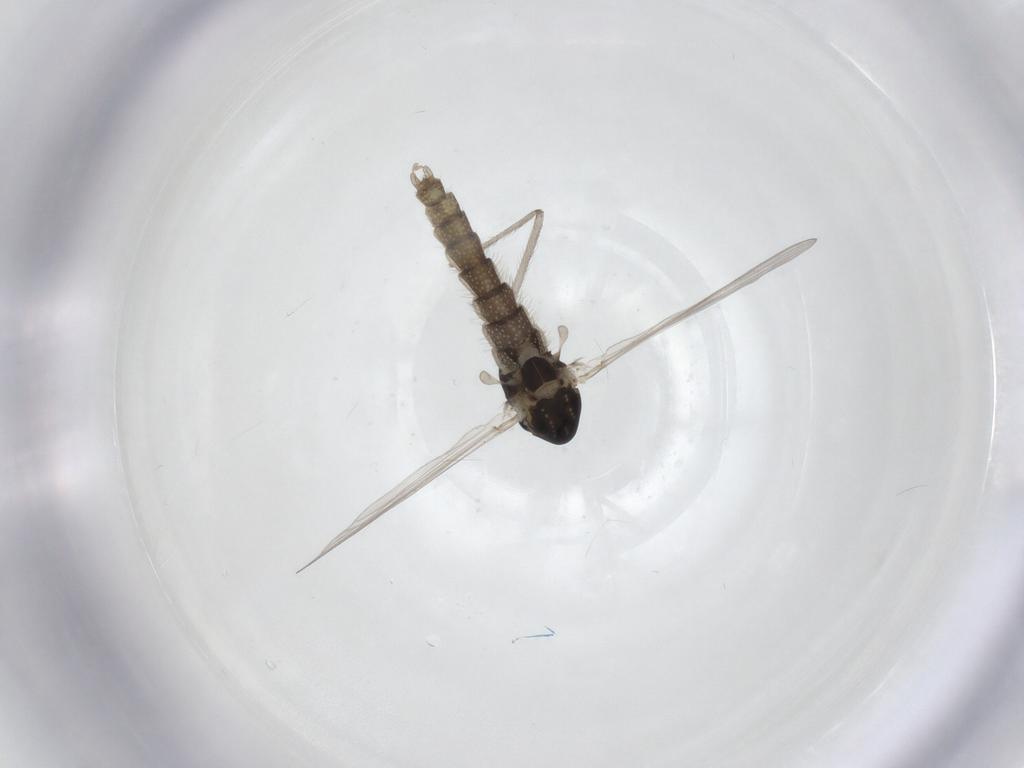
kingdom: Animalia
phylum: Arthropoda
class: Insecta
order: Diptera
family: Chironomidae
